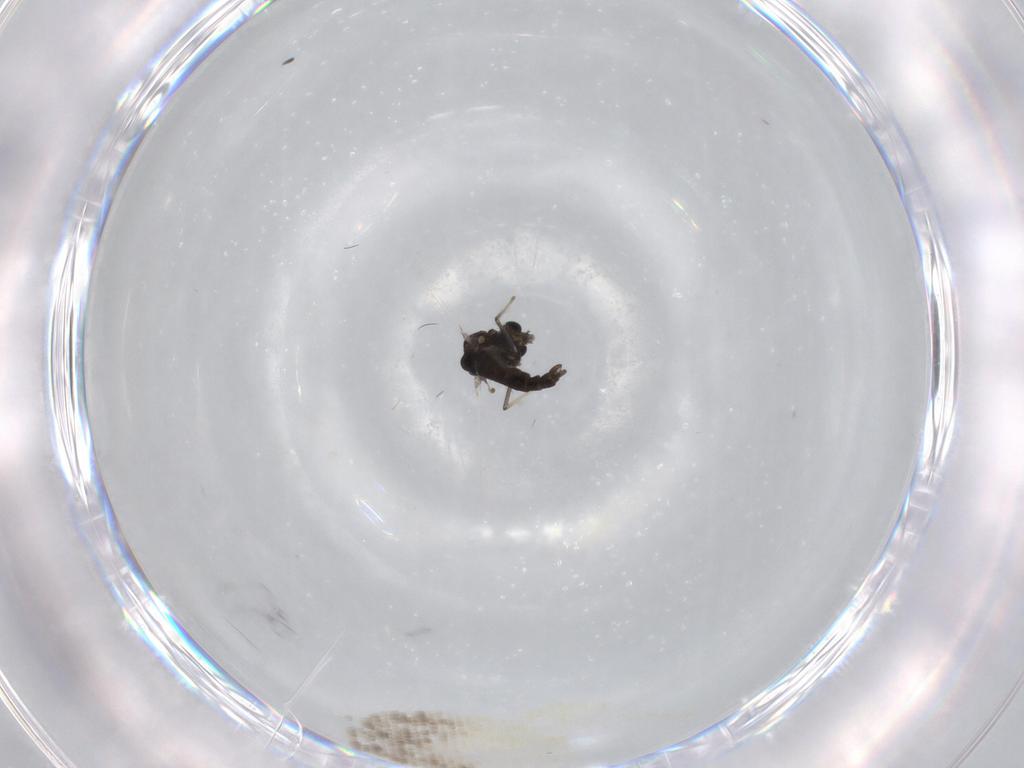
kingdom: Animalia
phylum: Arthropoda
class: Insecta
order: Diptera
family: Chironomidae
